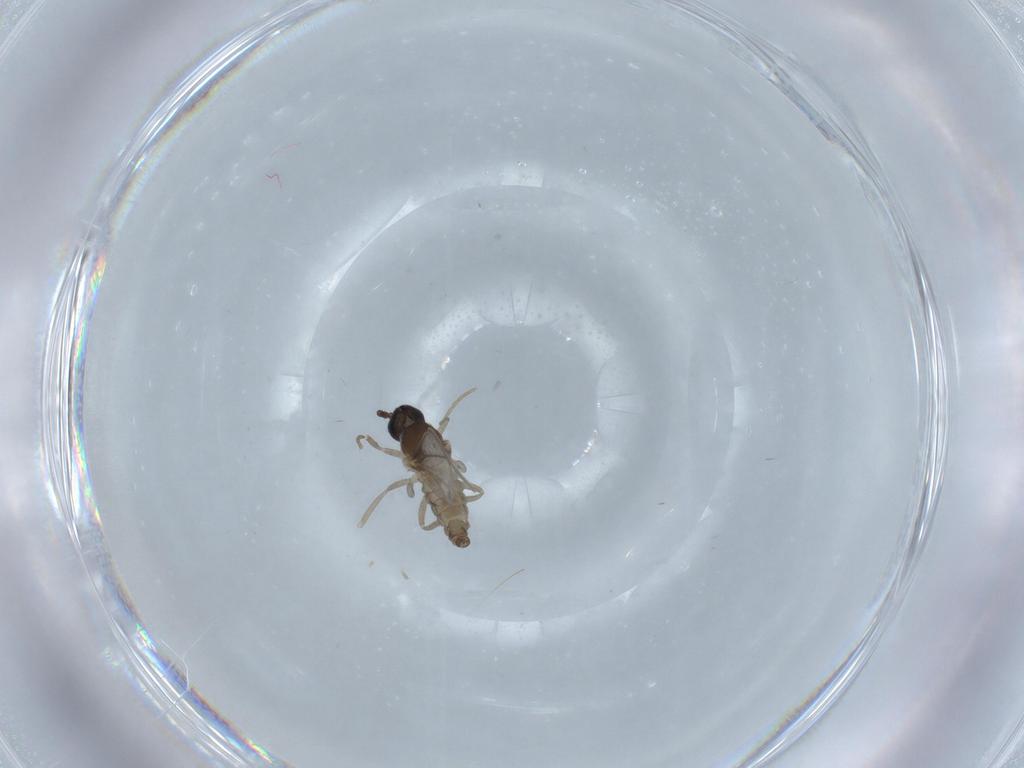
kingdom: Animalia
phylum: Arthropoda
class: Insecta
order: Diptera
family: Cecidomyiidae
